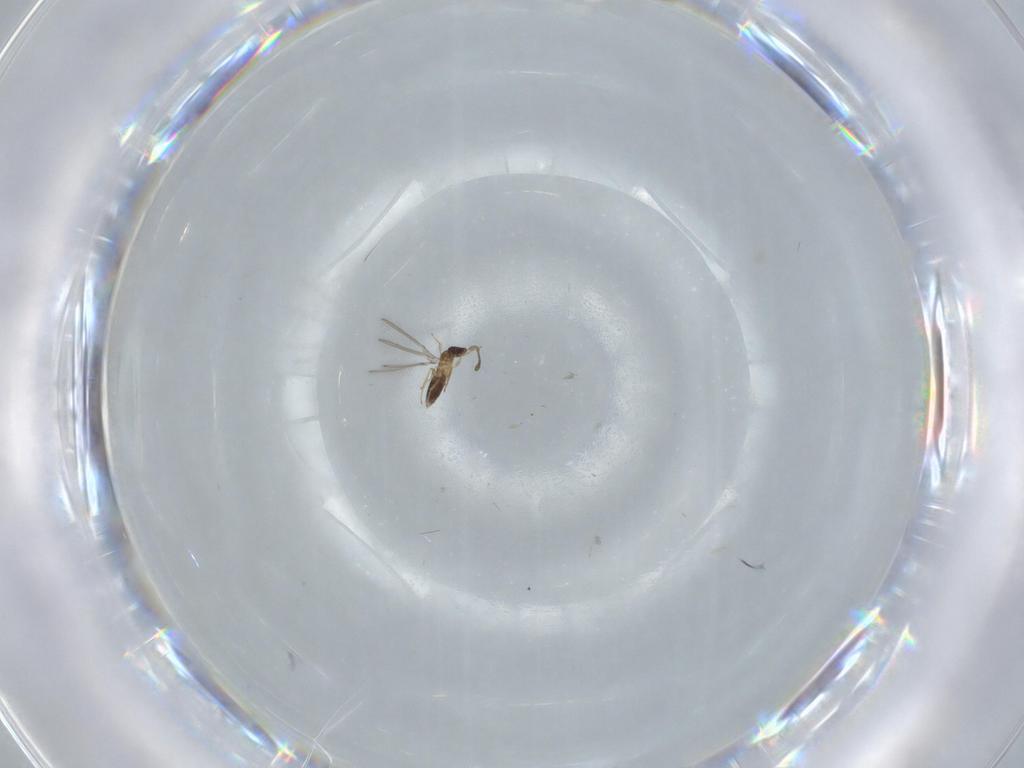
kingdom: Animalia
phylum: Arthropoda
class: Insecta
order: Hymenoptera
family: Mymaridae
